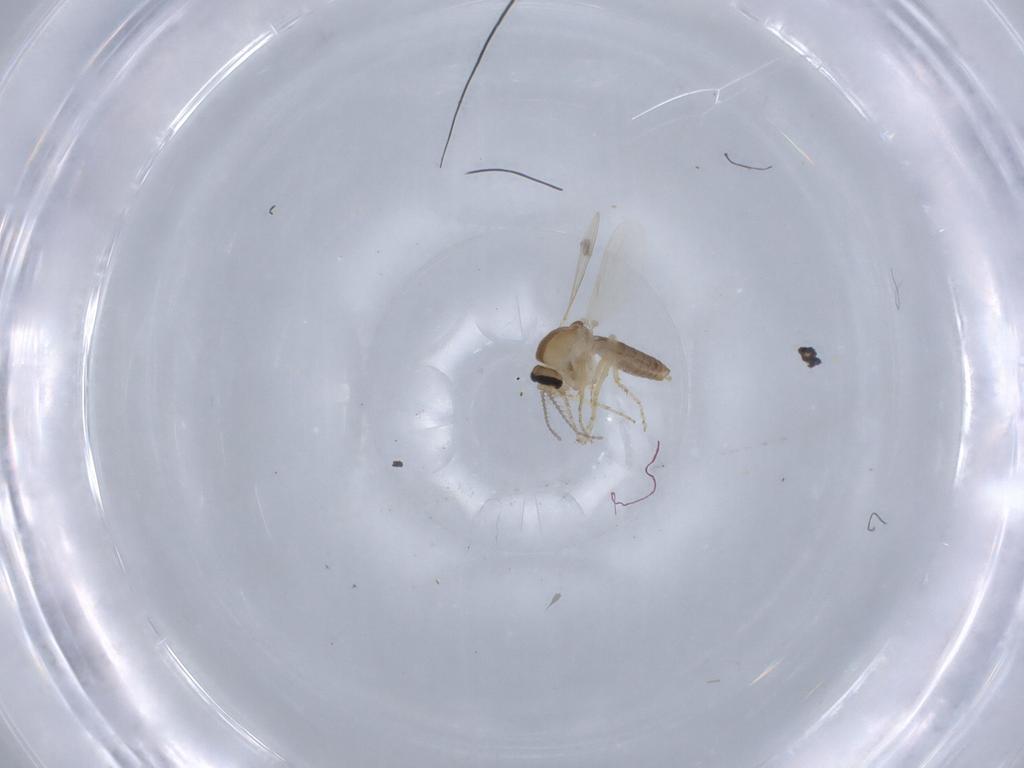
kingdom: Animalia
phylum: Arthropoda
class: Insecta
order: Diptera
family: Ceratopogonidae
